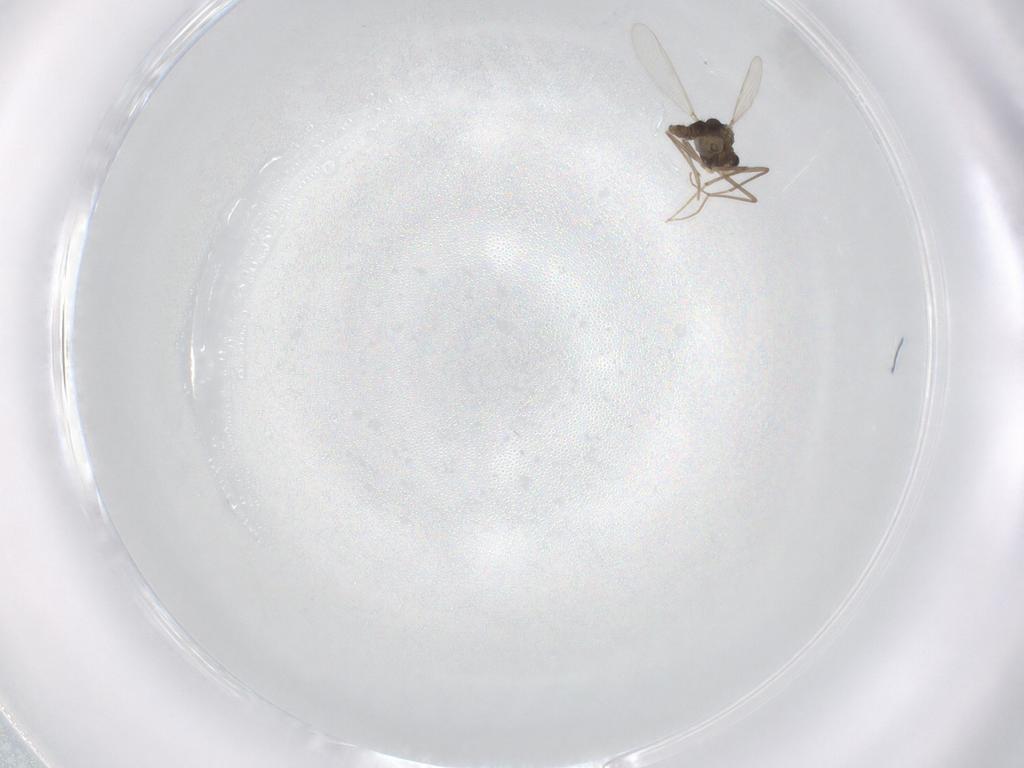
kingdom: Animalia
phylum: Arthropoda
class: Insecta
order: Diptera
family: Chironomidae
